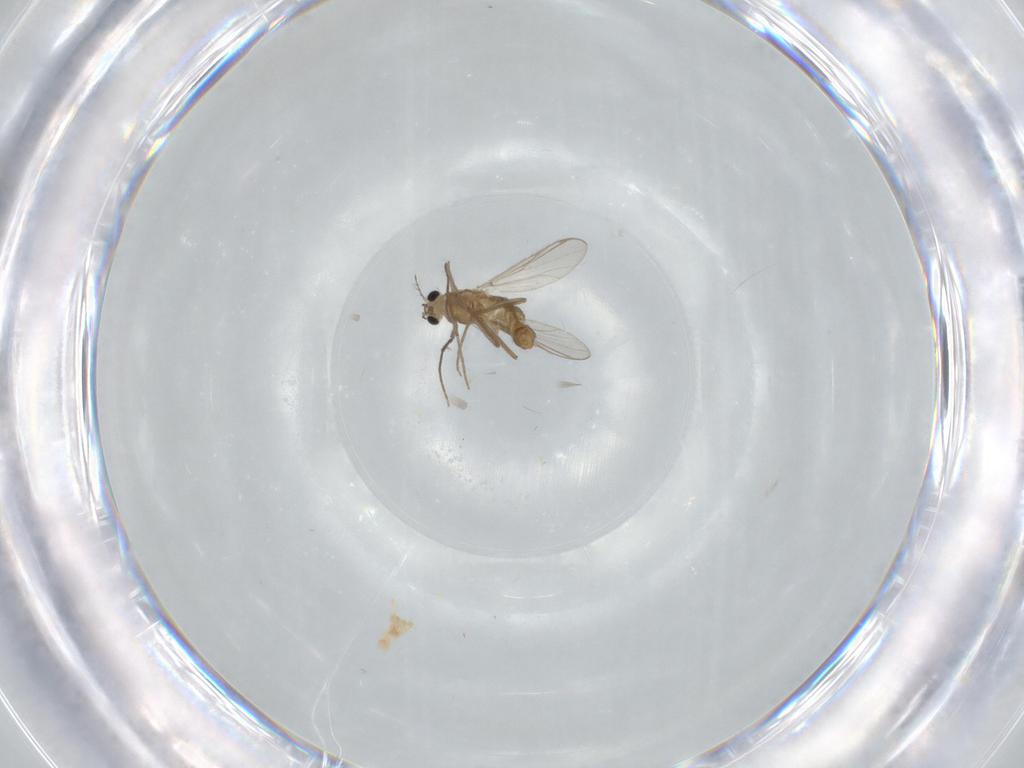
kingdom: Animalia
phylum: Arthropoda
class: Insecta
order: Diptera
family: Chironomidae
